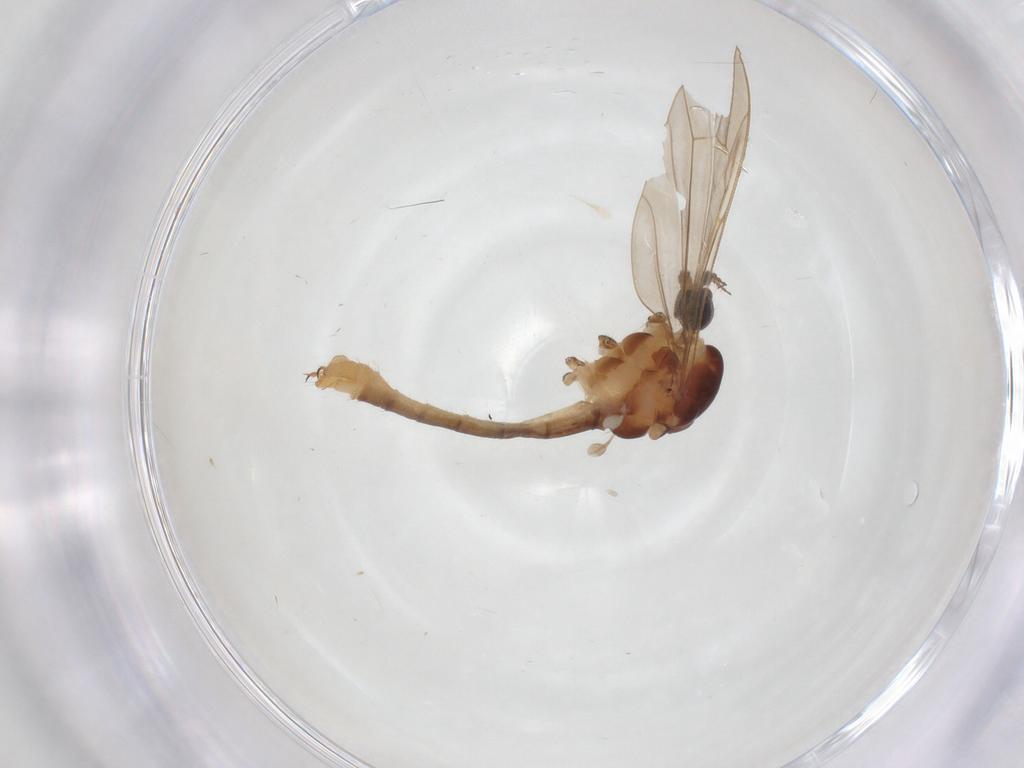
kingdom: Animalia
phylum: Arthropoda
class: Insecta
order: Diptera
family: Limoniidae
